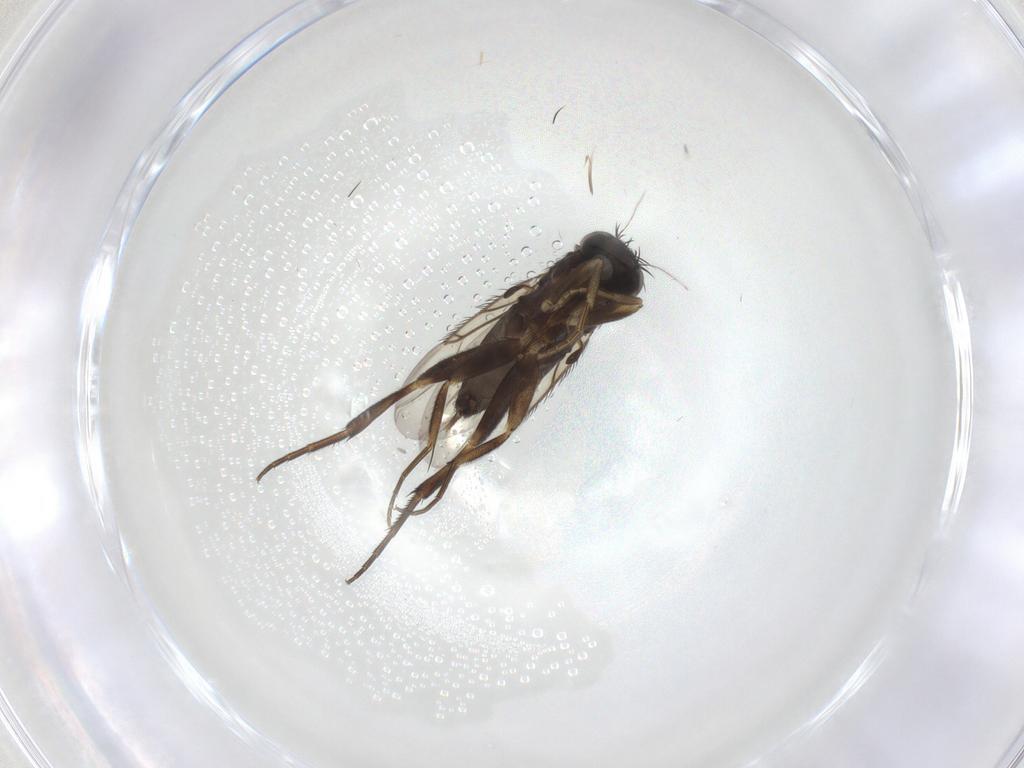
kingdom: Animalia
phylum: Arthropoda
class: Insecta
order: Diptera
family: Phoridae
